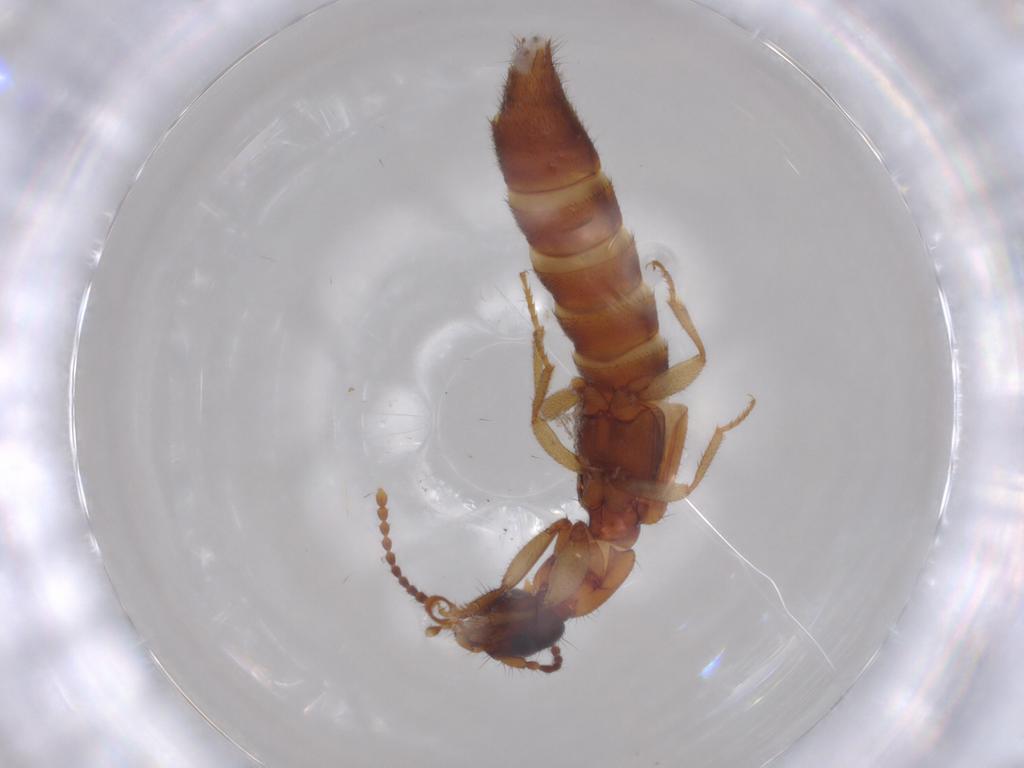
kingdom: Animalia
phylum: Arthropoda
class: Insecta
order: Coleoptera
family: Staphylinidae
